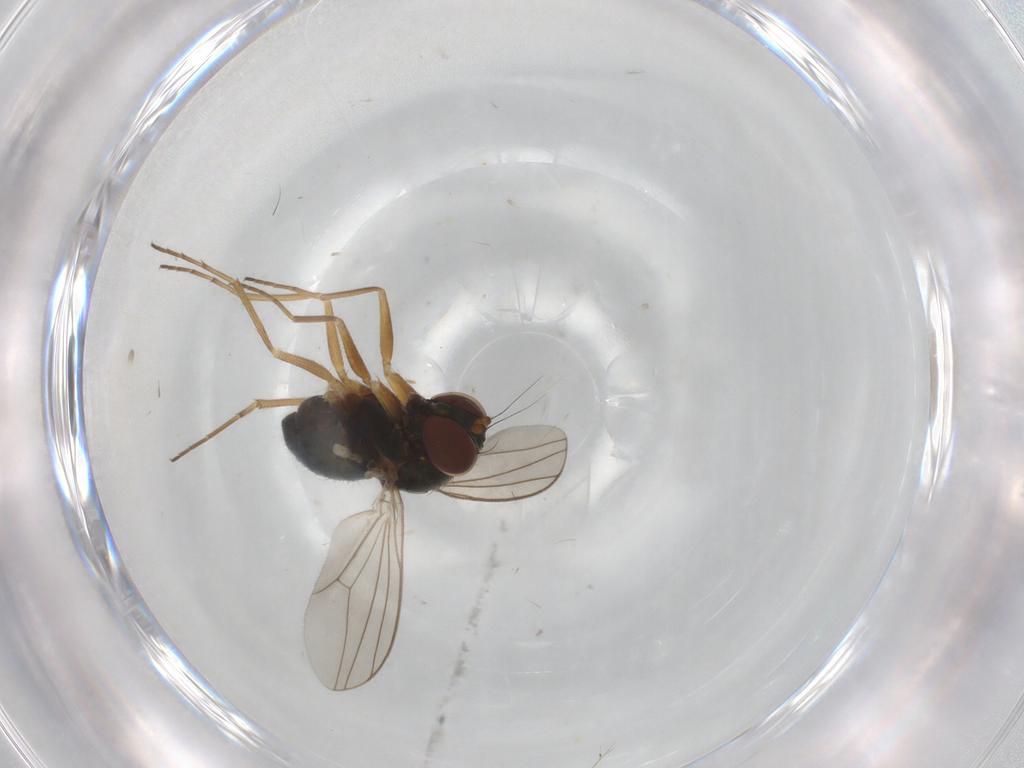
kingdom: Animalia
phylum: Arthropoda
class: Insecta
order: Diptera
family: Dolichopodidae
